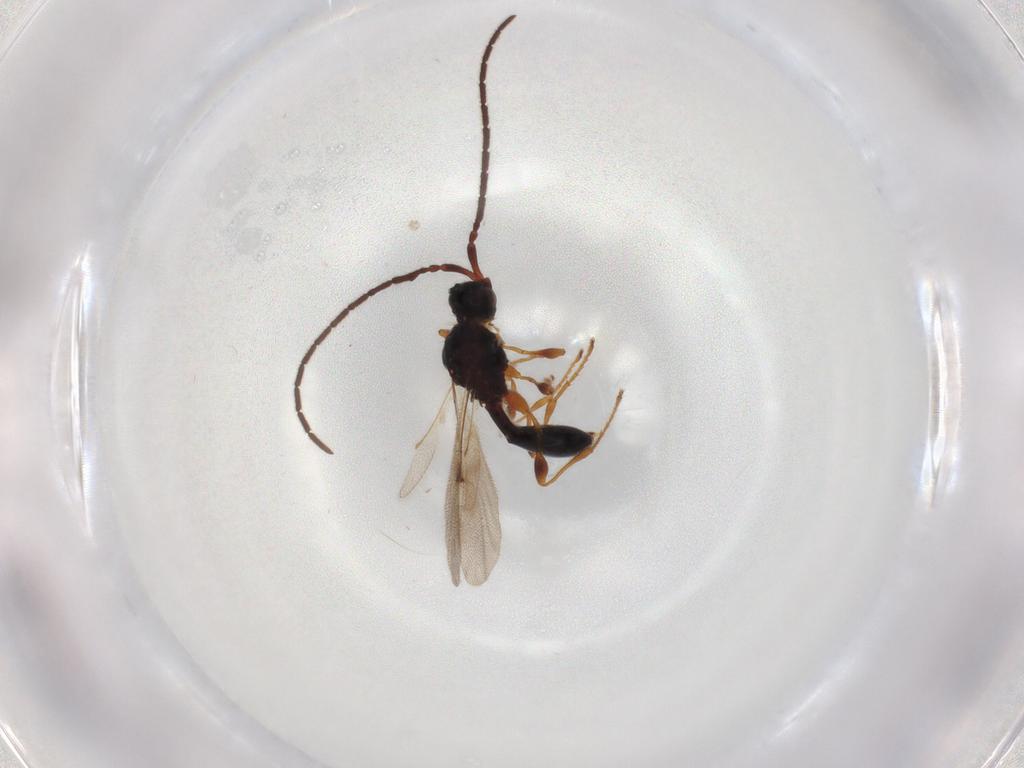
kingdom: Animalia
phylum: Arthropoda
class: Insecta
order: Hymenoptera
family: Diapriidae
